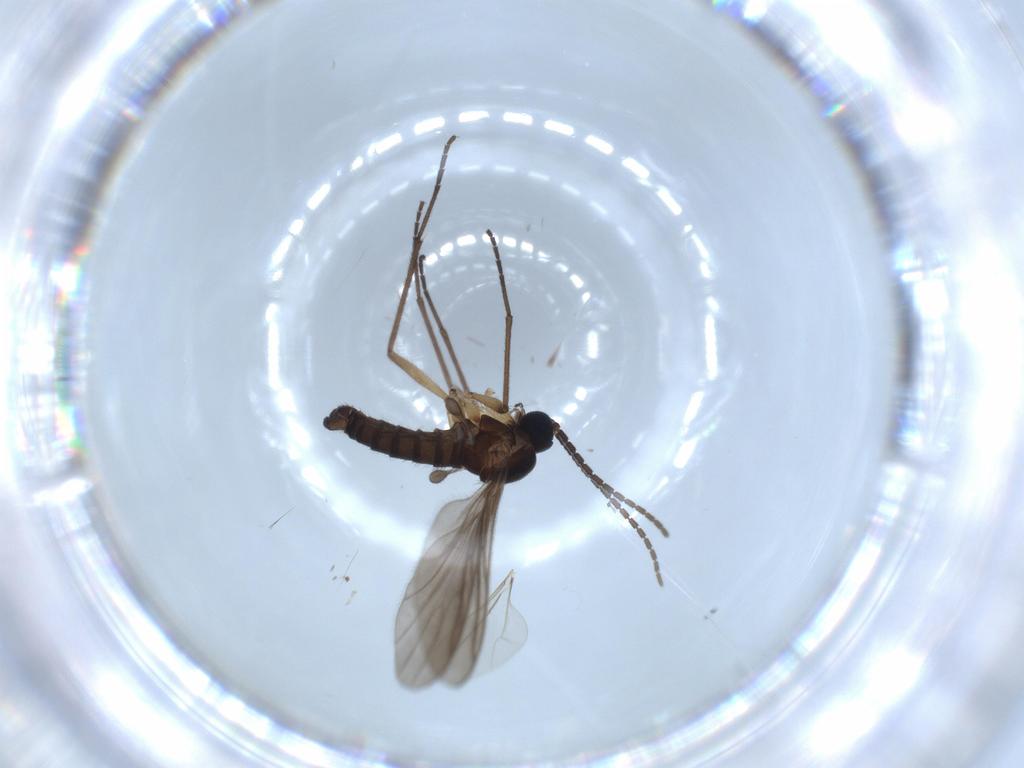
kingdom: Animalia
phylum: Arthropoda
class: Insecta
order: Diptera
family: Sciaridae
